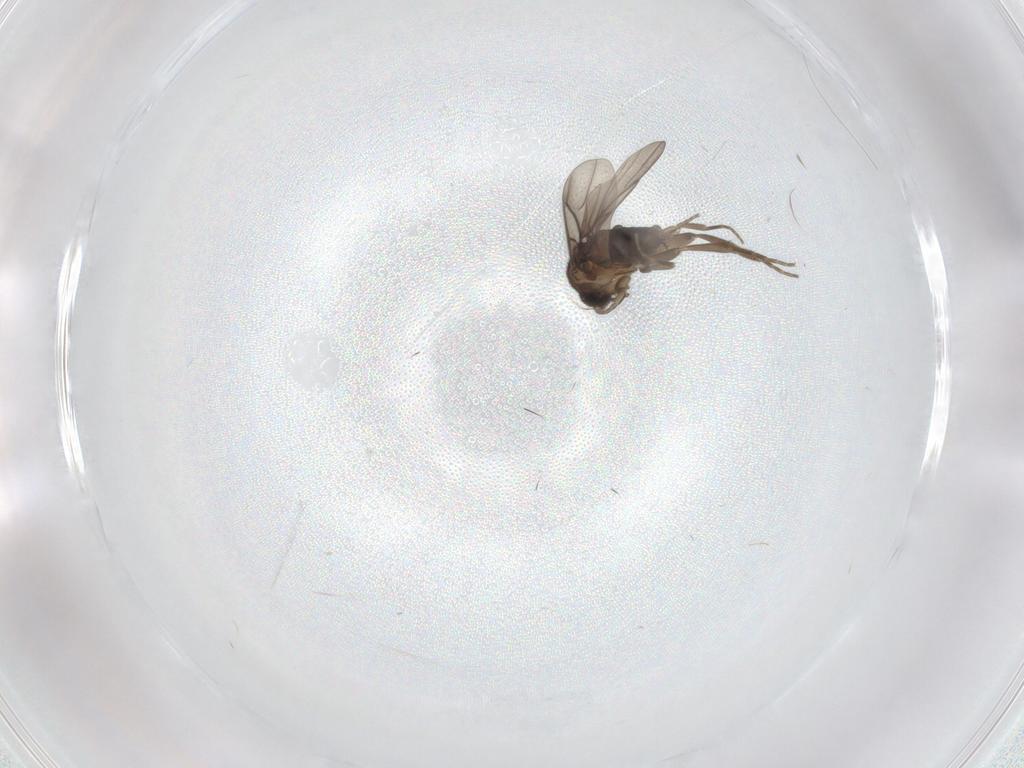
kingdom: Animalia
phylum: Arthropoda
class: Insecta
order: Diptera
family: Phoridae
